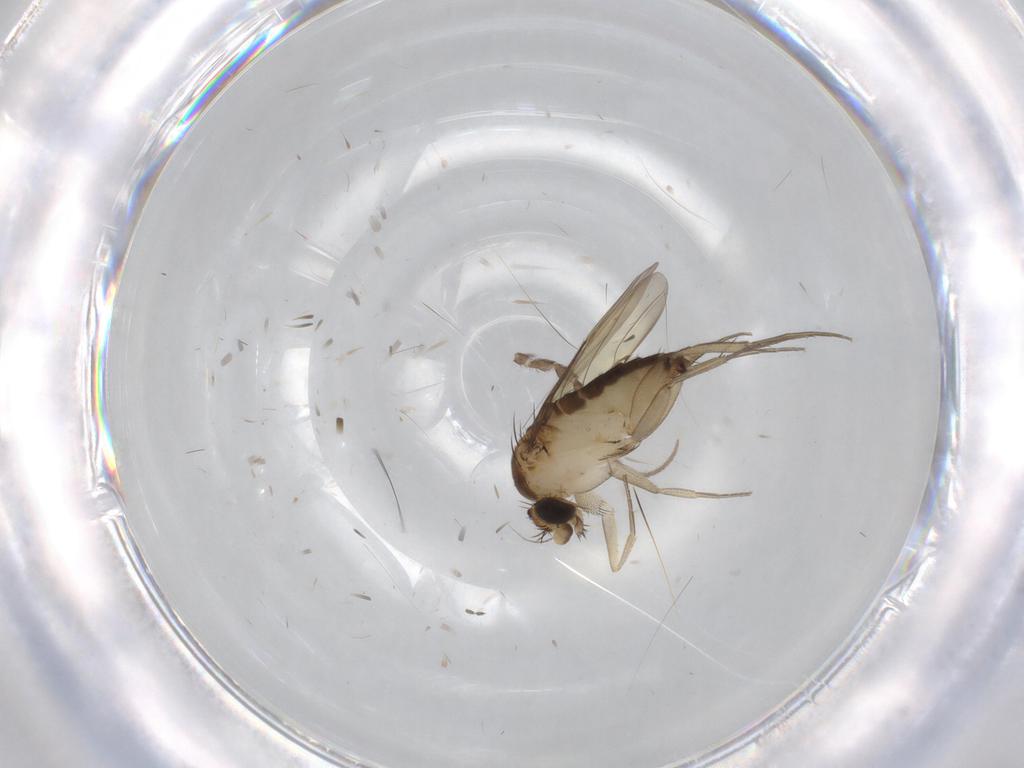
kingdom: Animalia
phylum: Arthropoda
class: Insecta
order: Diptera
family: Phoridae
